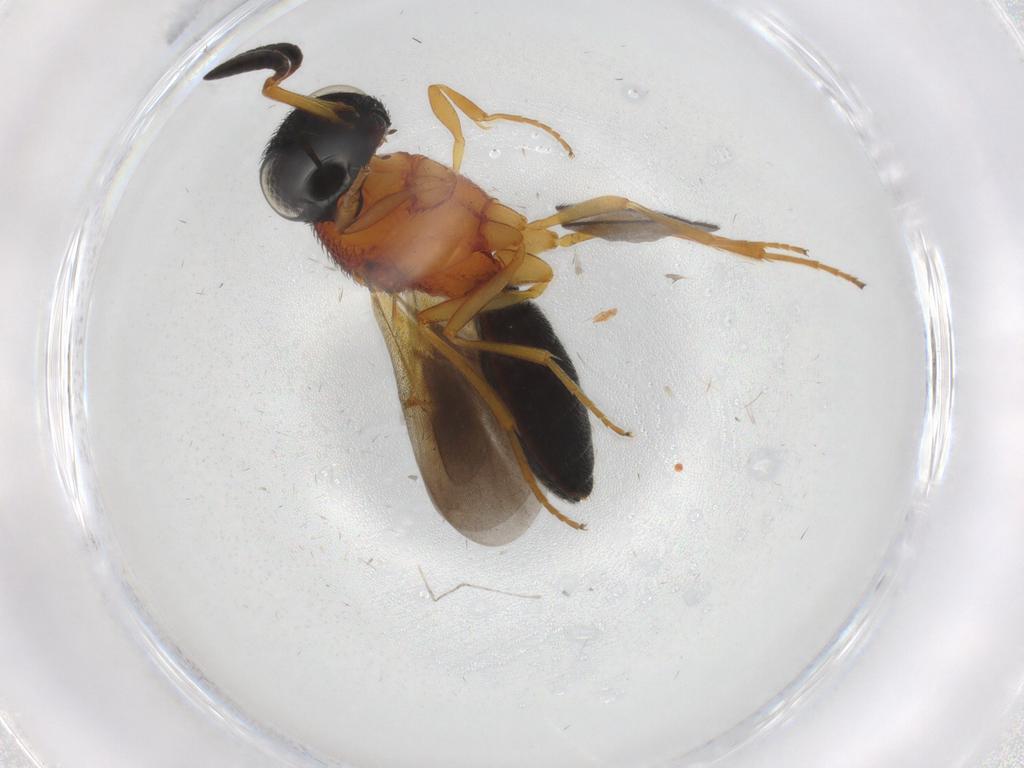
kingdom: Animalia
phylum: Arthropoda
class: Insecta
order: Hymenoptera
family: Scelionidae
